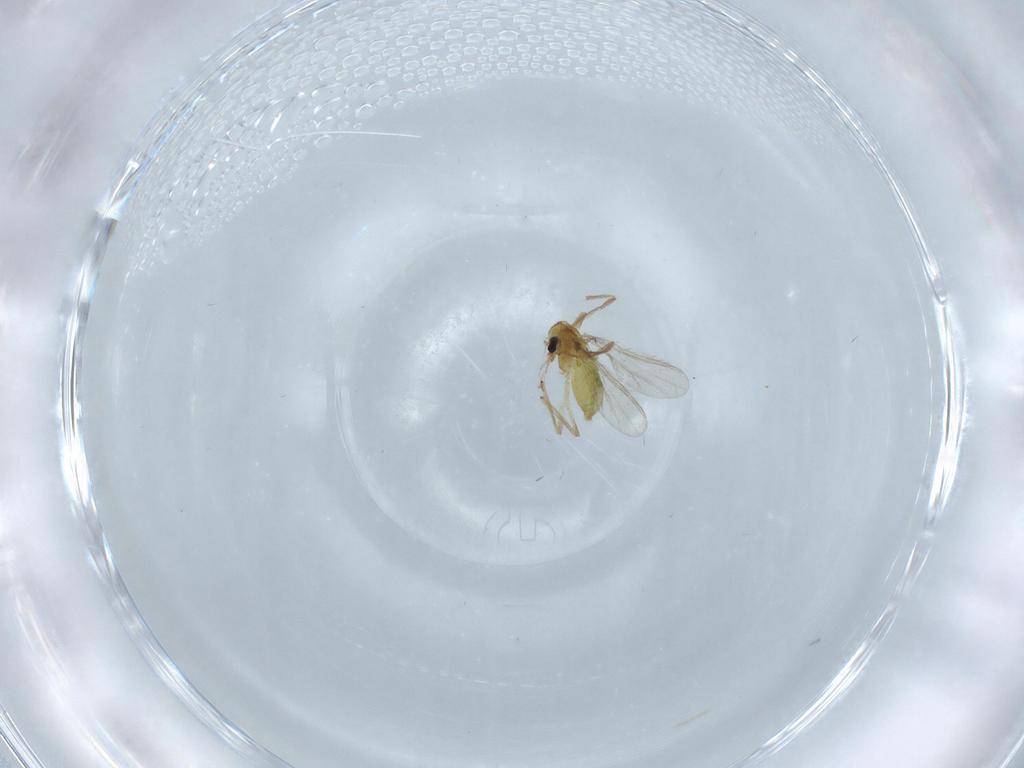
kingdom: Animalia
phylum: Arthropoda
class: Insecta
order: Diptera
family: Chironomidae
